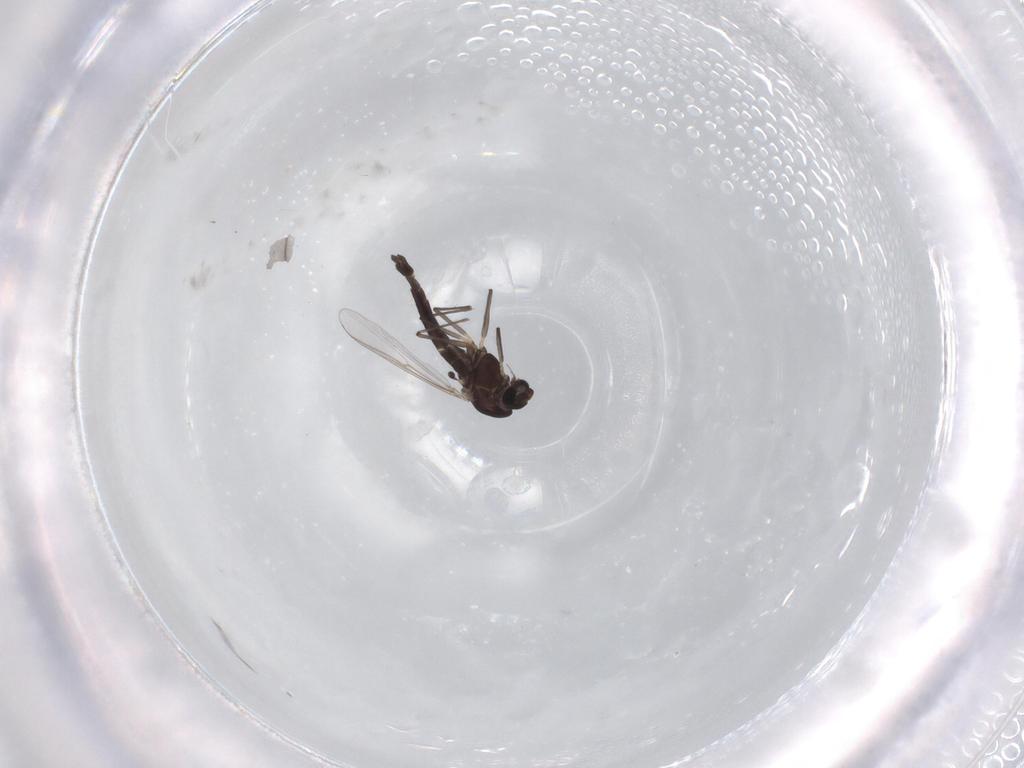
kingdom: Animalia
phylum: Arthropoda
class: Insecta
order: Diptera
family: Chironomidae
